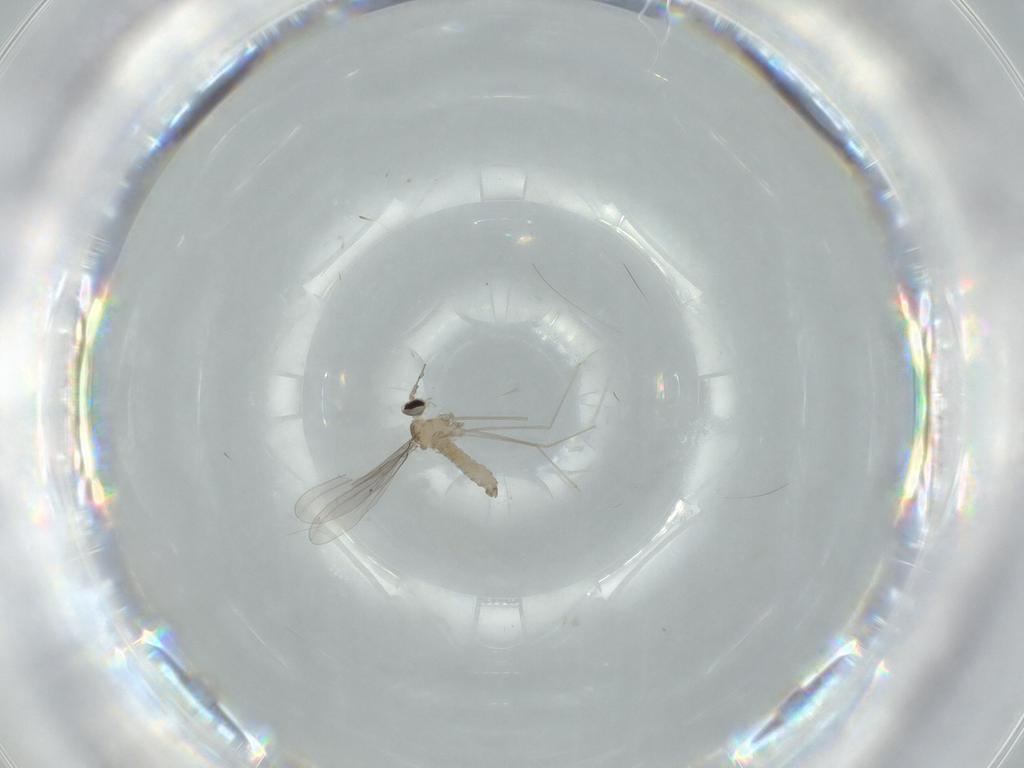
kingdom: Animalia
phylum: Arthropoda
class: Insecta
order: Diptera
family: Cecidomyiidae
